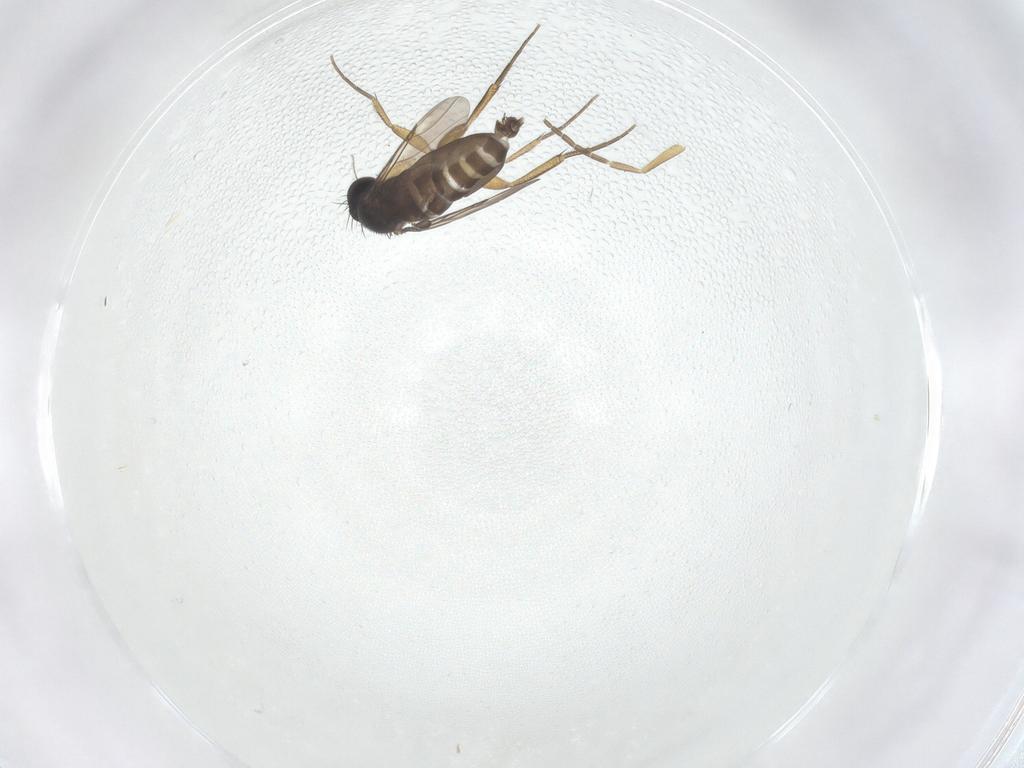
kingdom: Animalia
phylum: Arthropoda
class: Insecta
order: Diptera
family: Phoridae
